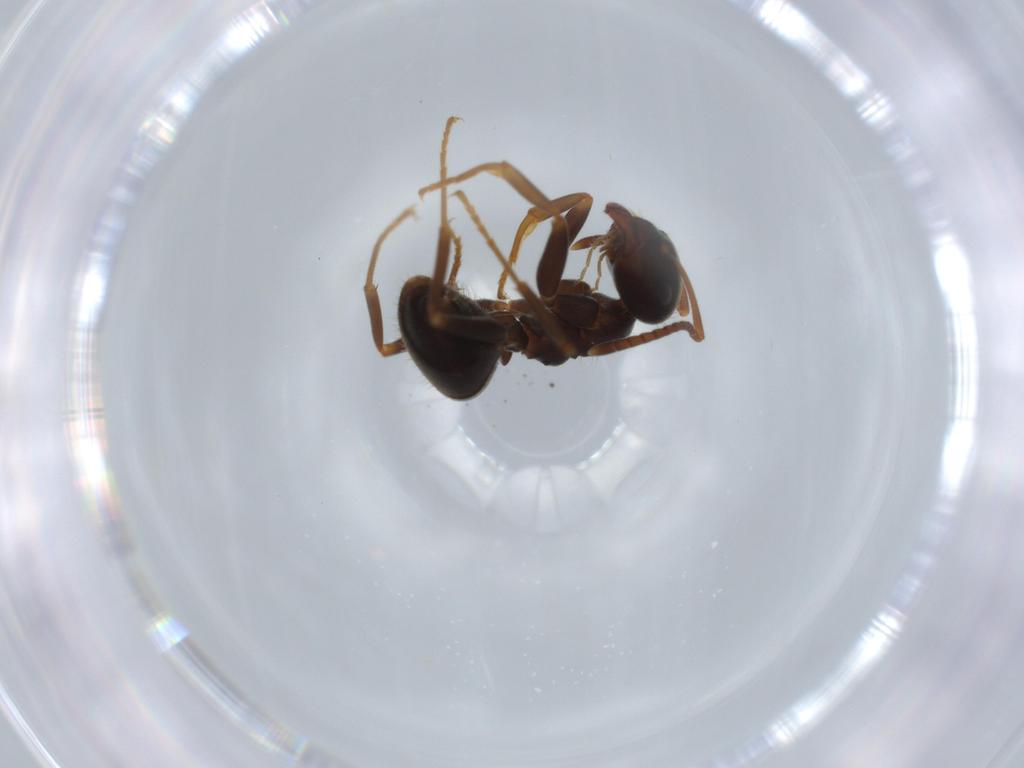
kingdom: Animalia
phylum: Arthropoda
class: Insecta
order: Hymenoptera
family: Formicidae
